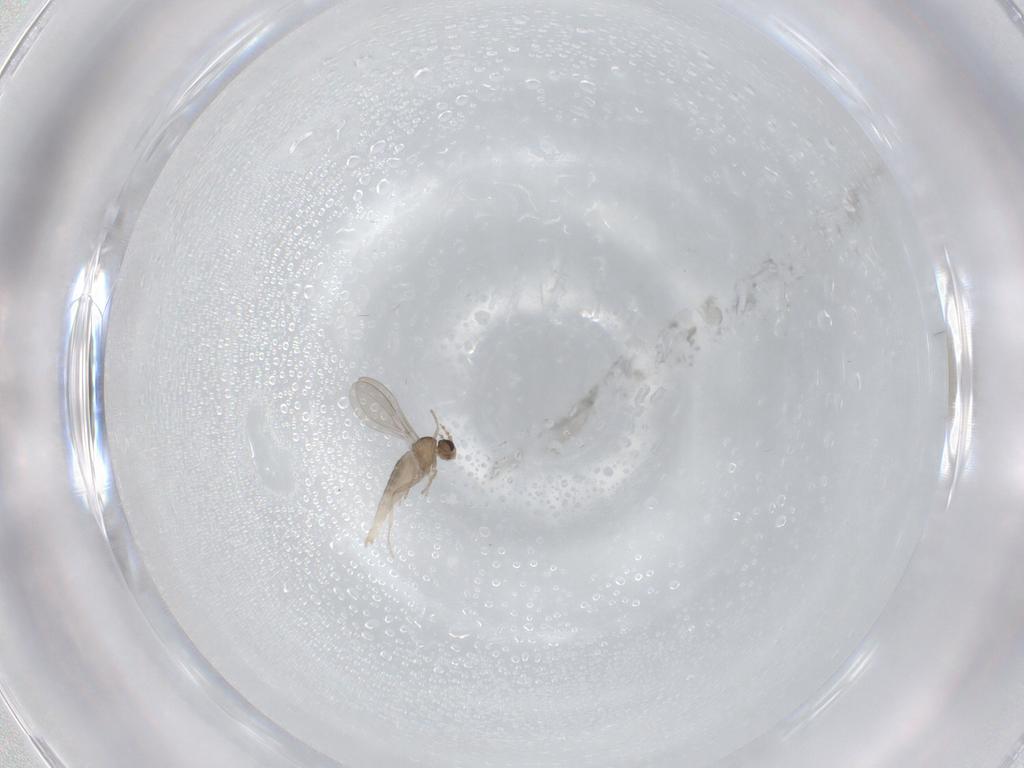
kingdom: Animalia
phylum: Arthropoda
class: Insecta
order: Diptera
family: Cecidomyiidae
